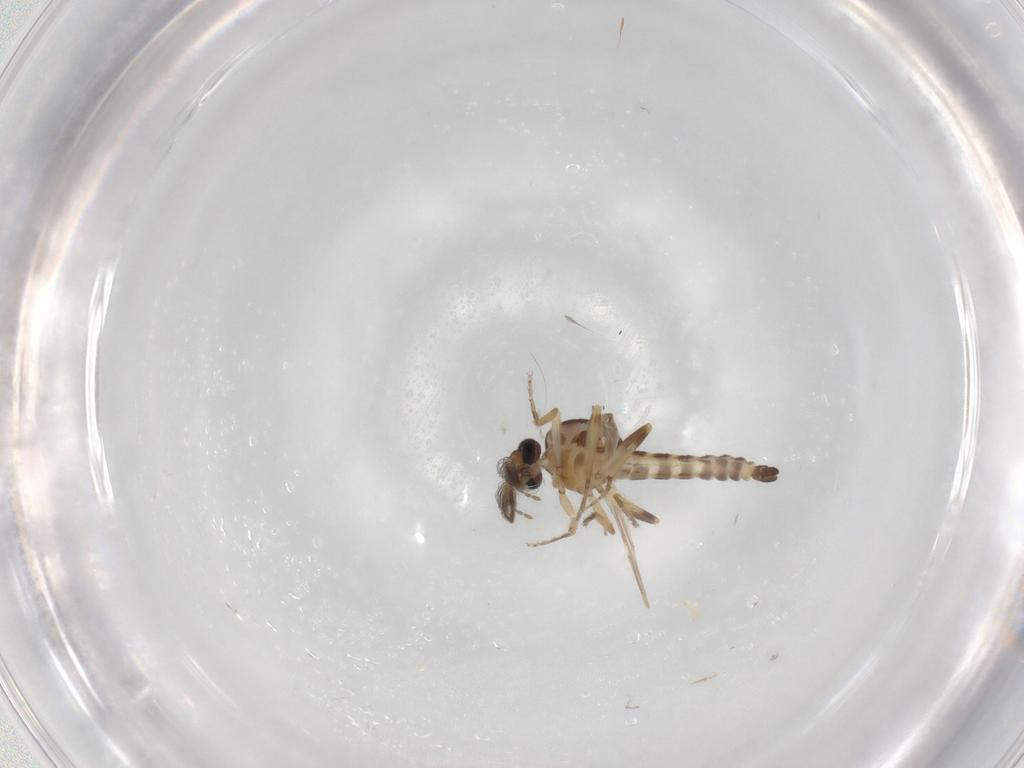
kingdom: Animalia
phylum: Arthropoda
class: Insecta
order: Diptera
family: Ceratopogonidae
